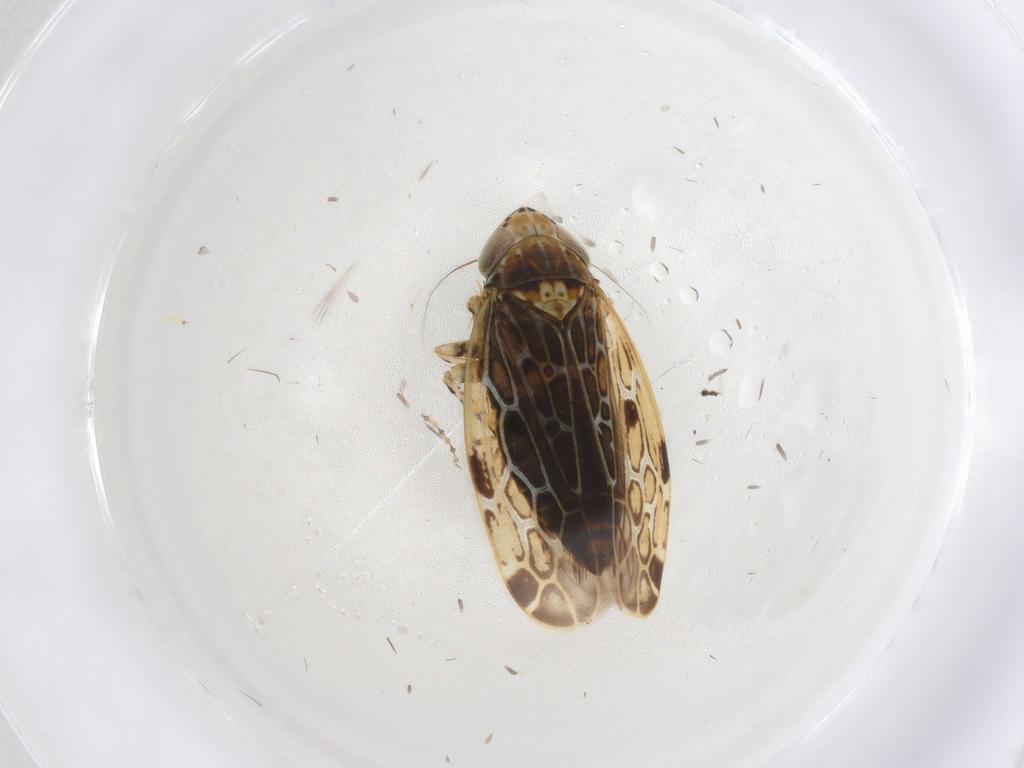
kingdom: Animalia
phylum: Arthropoda
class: Insecta
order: Hemiptera
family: Cicadellidae
